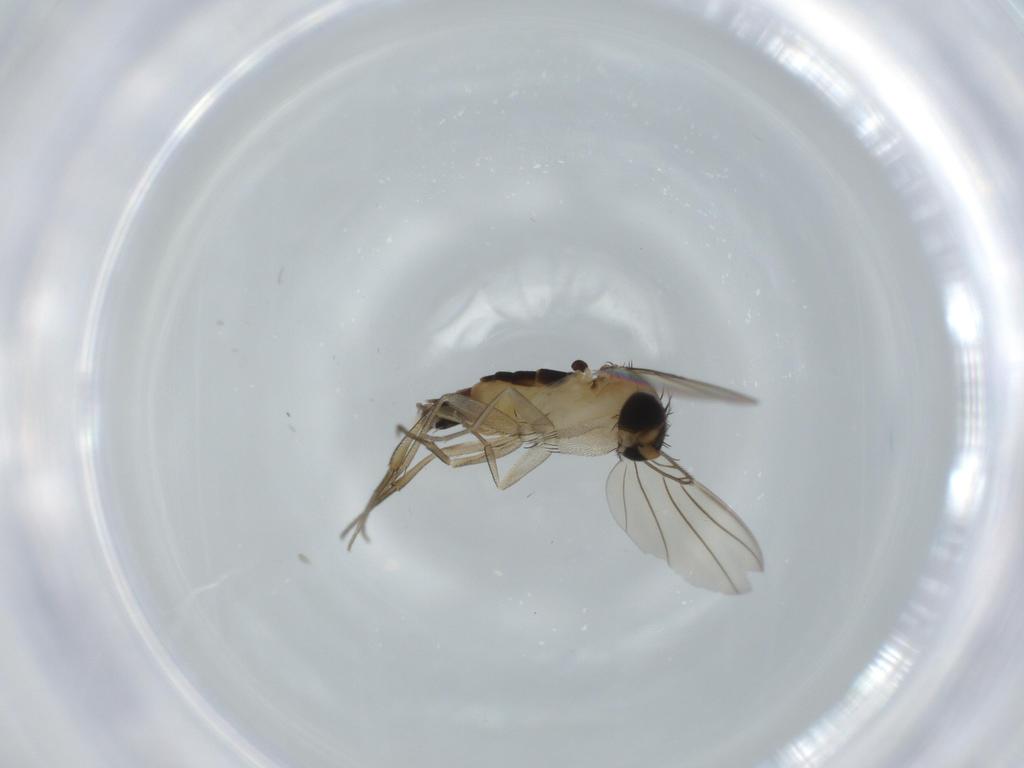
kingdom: Animalia
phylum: Arthropoda
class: Insecta
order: Diptera
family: Phoridae
